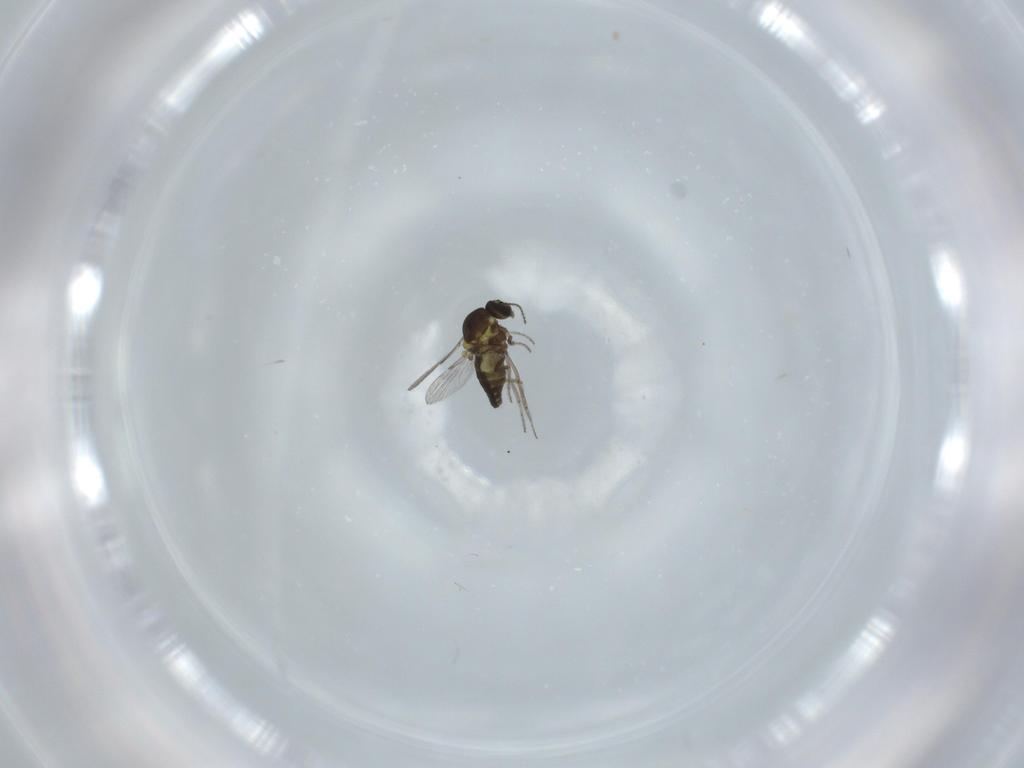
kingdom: Animalia
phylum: Arthropoda
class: Insecta
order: Diptera
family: Ceratopogonidae
